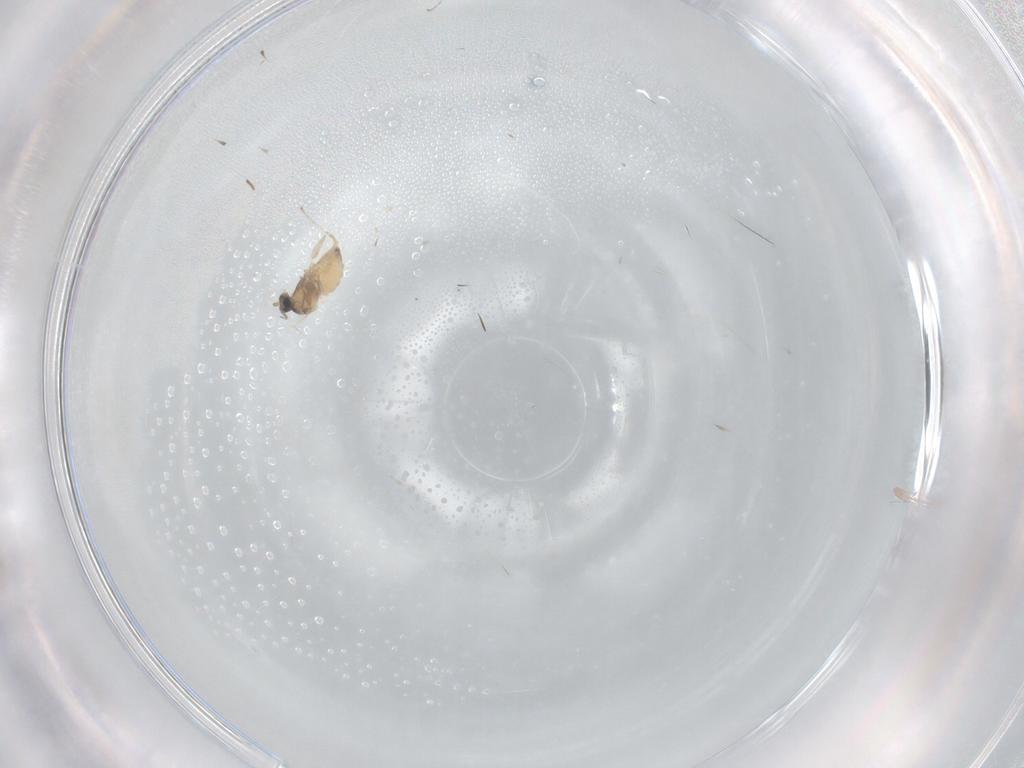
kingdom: Animalia
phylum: Arthropoda
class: Insecta
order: Diptera
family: Cecidomyiidae
